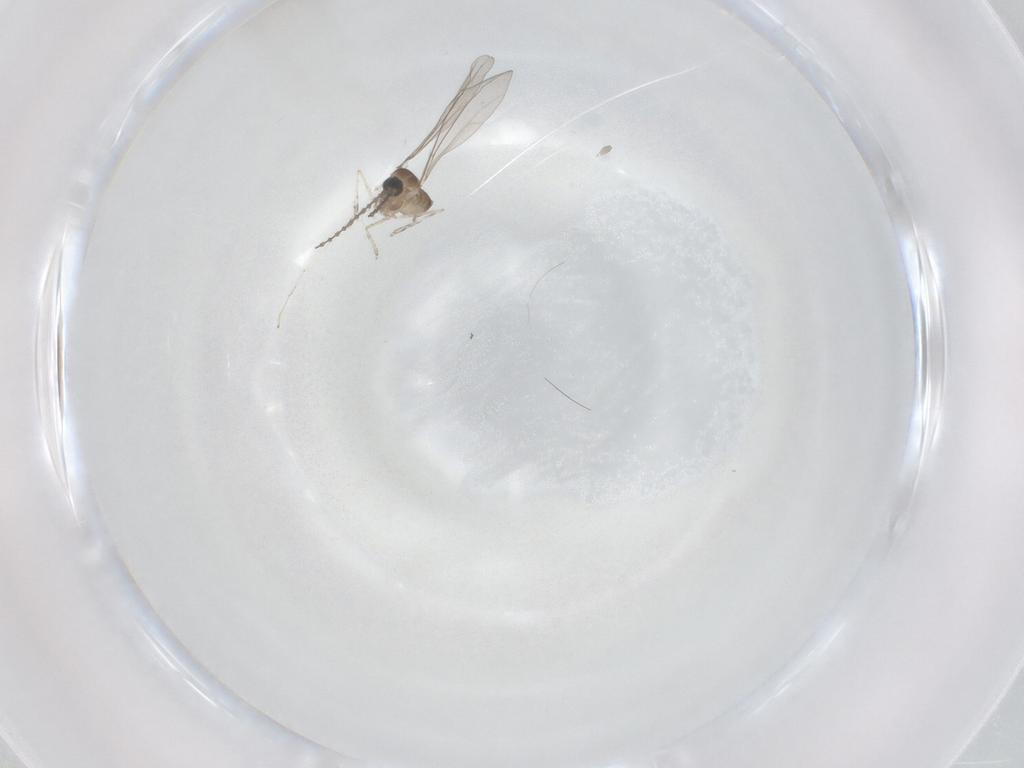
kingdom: Animalia
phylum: Arthropoda
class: Insecta
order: Diptera
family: Cecidomyiidae
